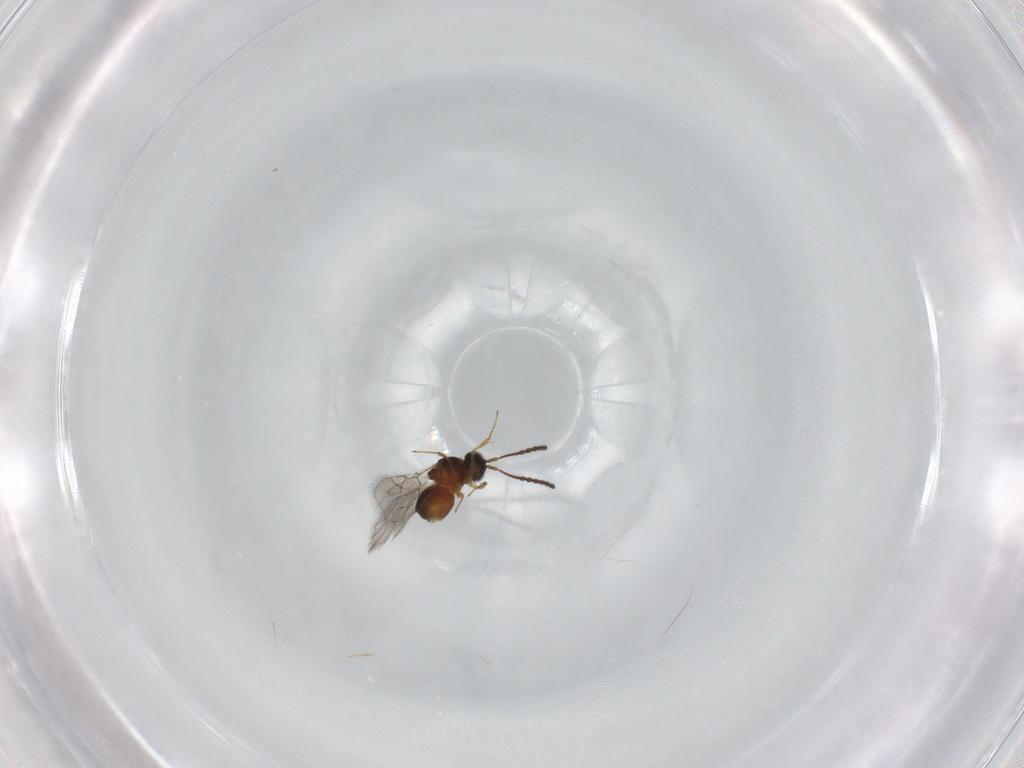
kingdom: Animalia
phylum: Arthropoda
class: Insecta
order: Hymenoptera
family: Figitidae
